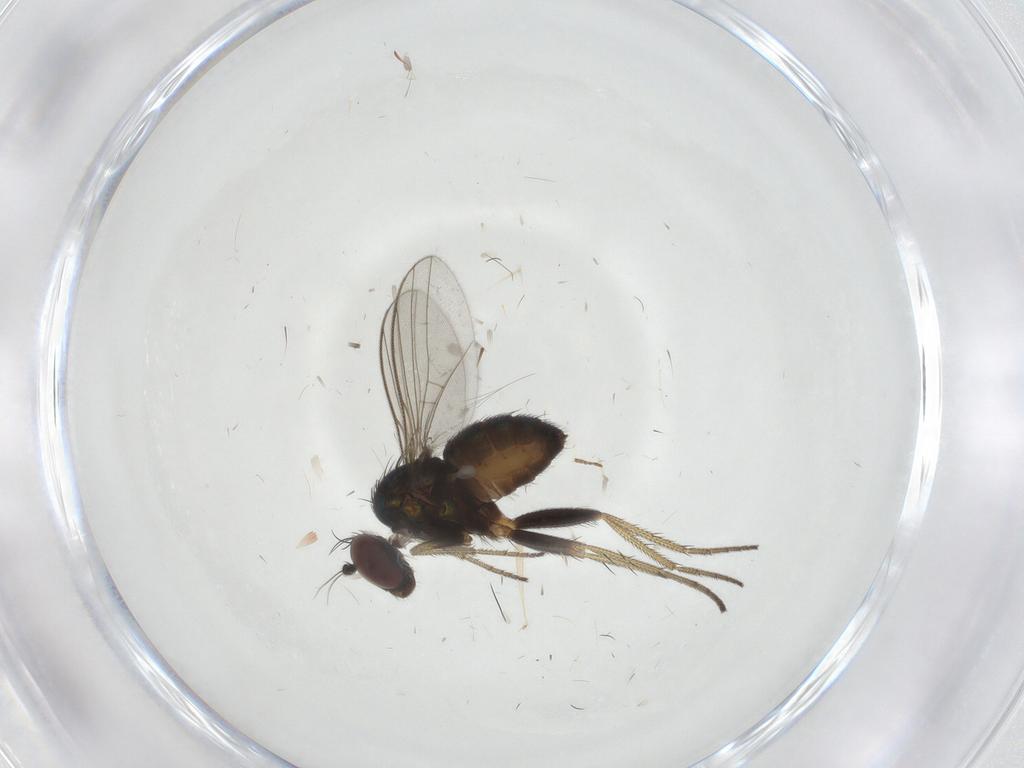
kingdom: Animalia
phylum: Arthropoda
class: Insecta
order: Diptera
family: Dolichopodidae
